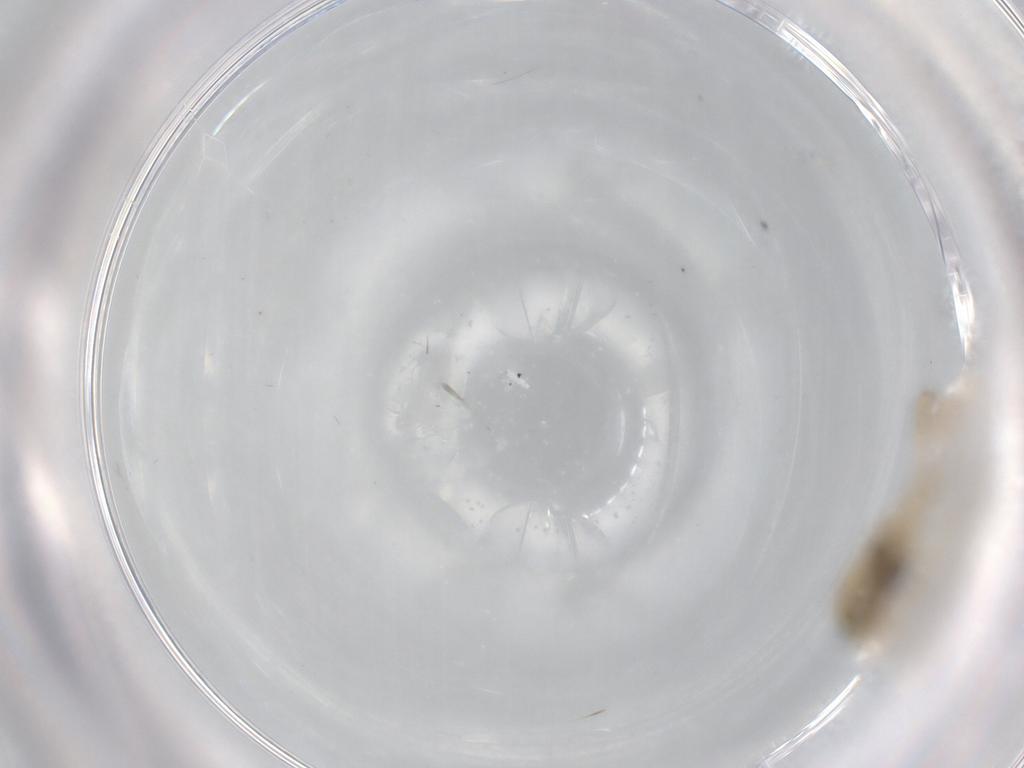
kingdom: Animalia
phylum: Arthropoda
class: Insecta
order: Diptera
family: Hybotidae
